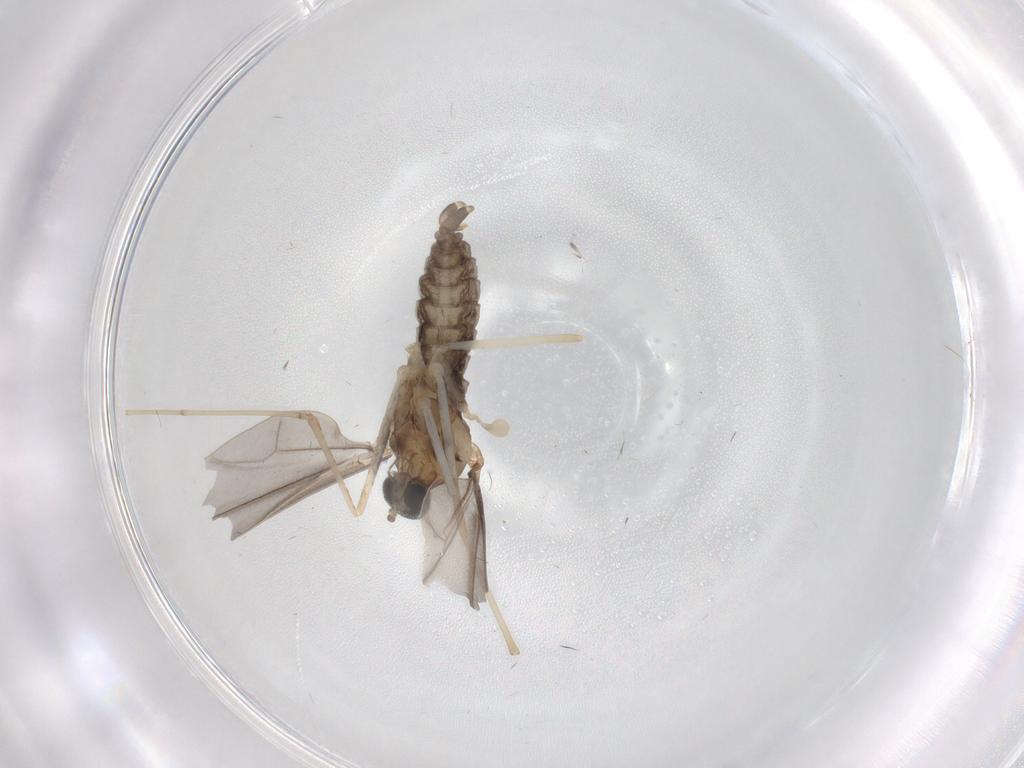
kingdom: Animalia
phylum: Arthropoda
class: Insecta
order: Diptera
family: Cecidomyiidae
